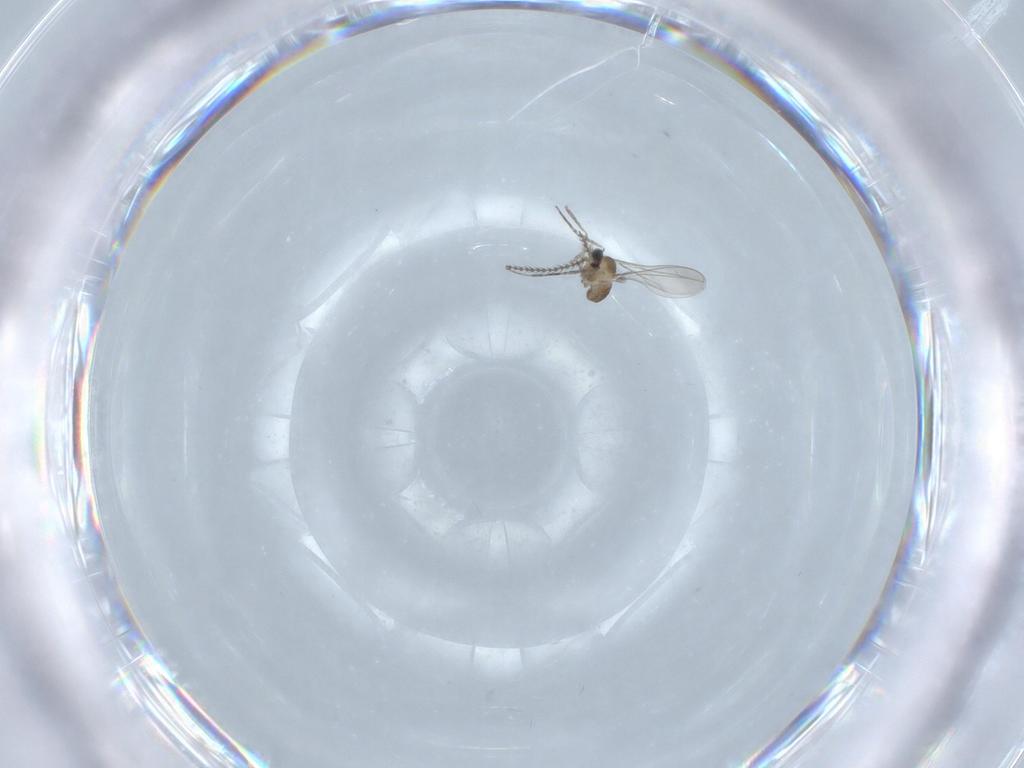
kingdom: Animalia
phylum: Arthropoda
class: Insecta
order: Diptera
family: Cecidomyiidae
